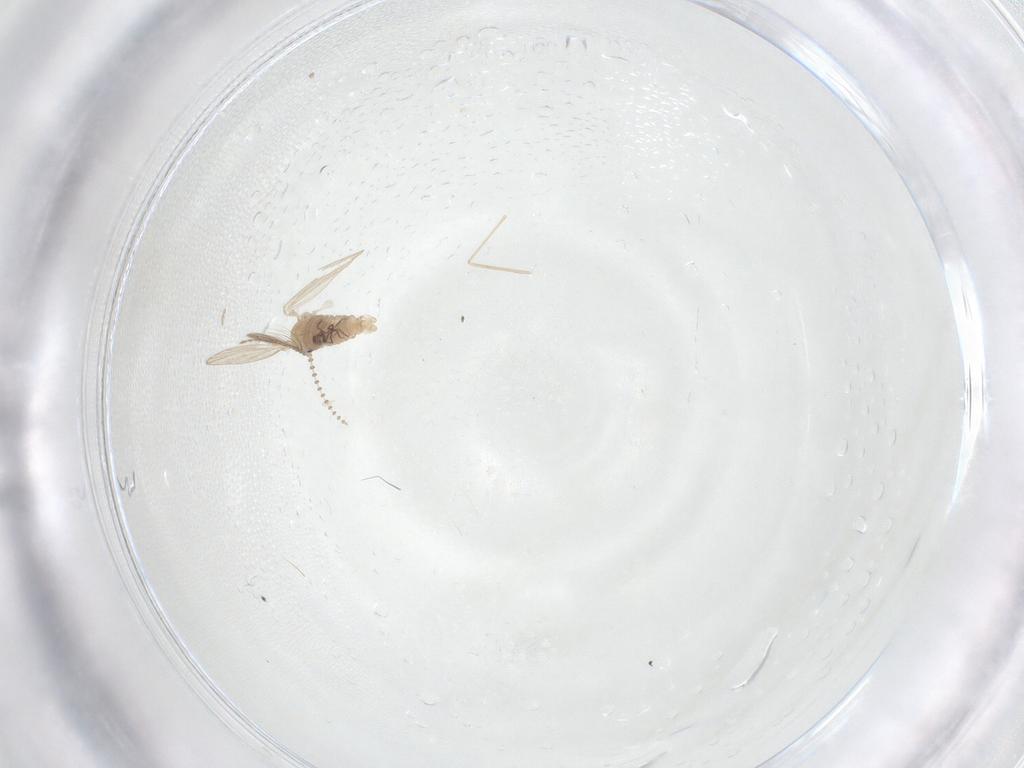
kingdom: Animalia
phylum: Arthropoda
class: Insecta
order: Diptera
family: Psychodidae
